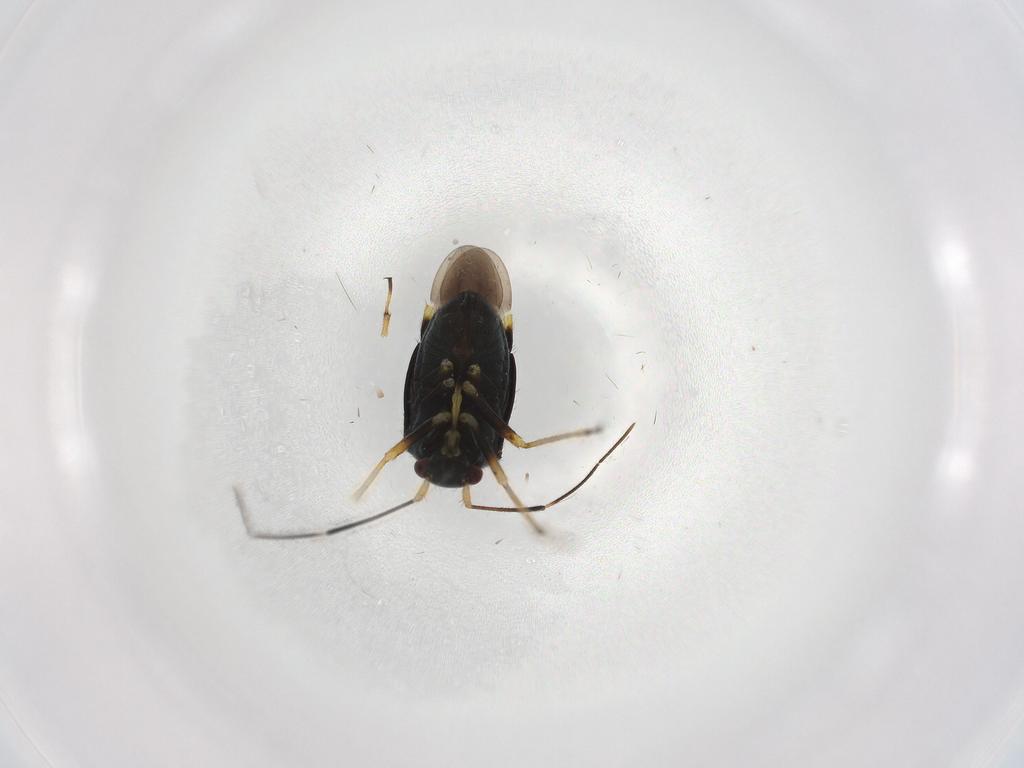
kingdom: Animalia
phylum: Arthropoda
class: Insecta
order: Hemiptera
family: Miridae
